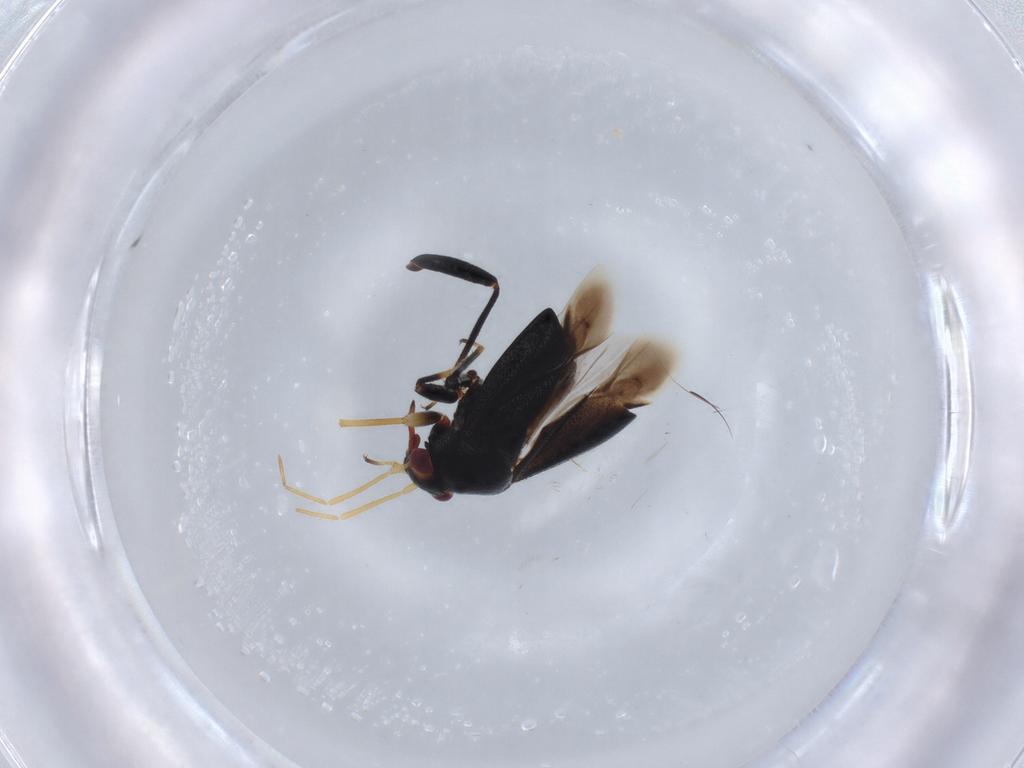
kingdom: Animalia
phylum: Arthropoda
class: Insecta
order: Hemiptera
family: Miridae
